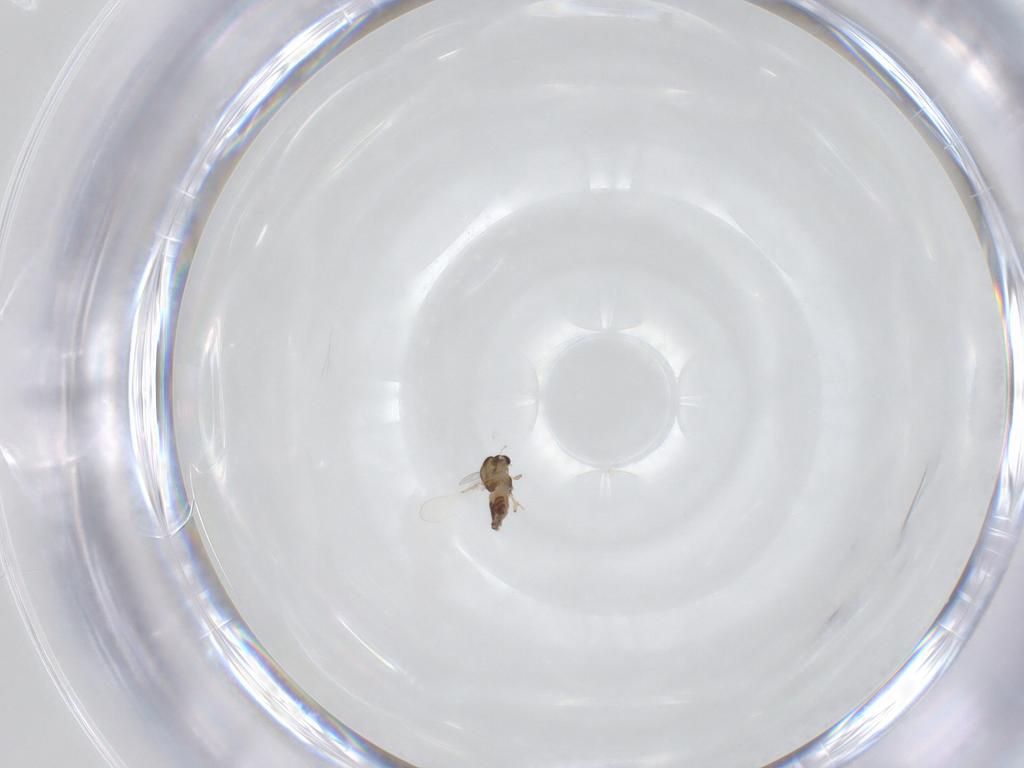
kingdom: Animalia
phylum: Arthropoda
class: Insecta
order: Diptera
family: Chironomidae
